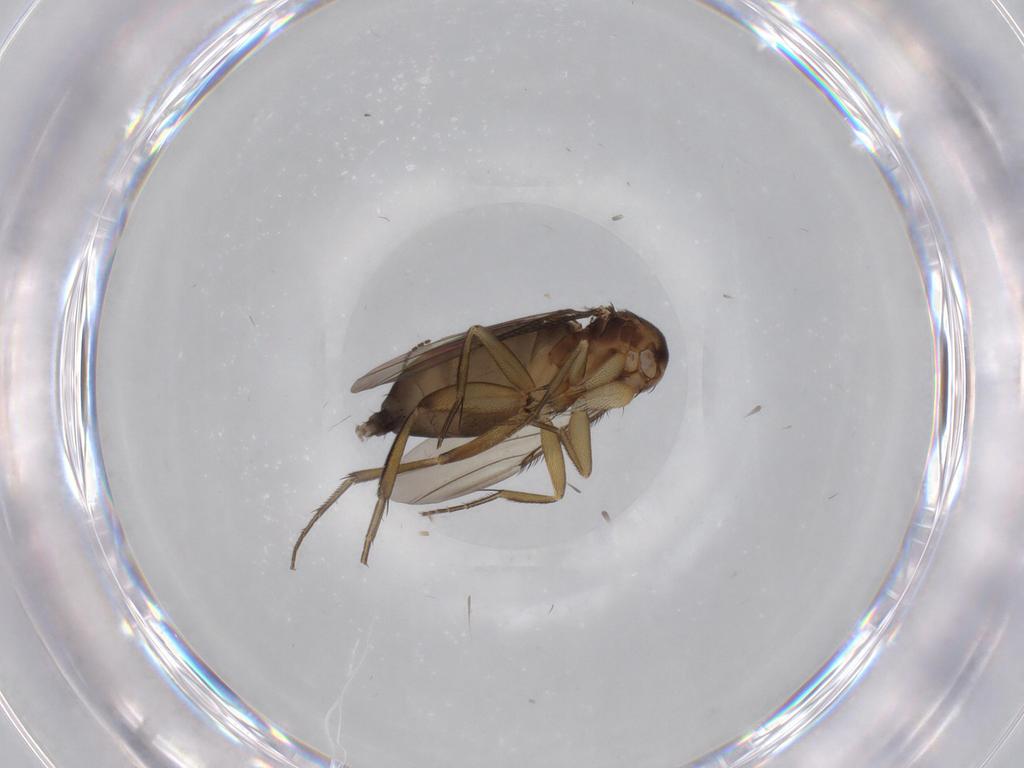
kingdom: Animalia
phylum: Arthropoda
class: Insecta
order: Diptera
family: Phoridae
